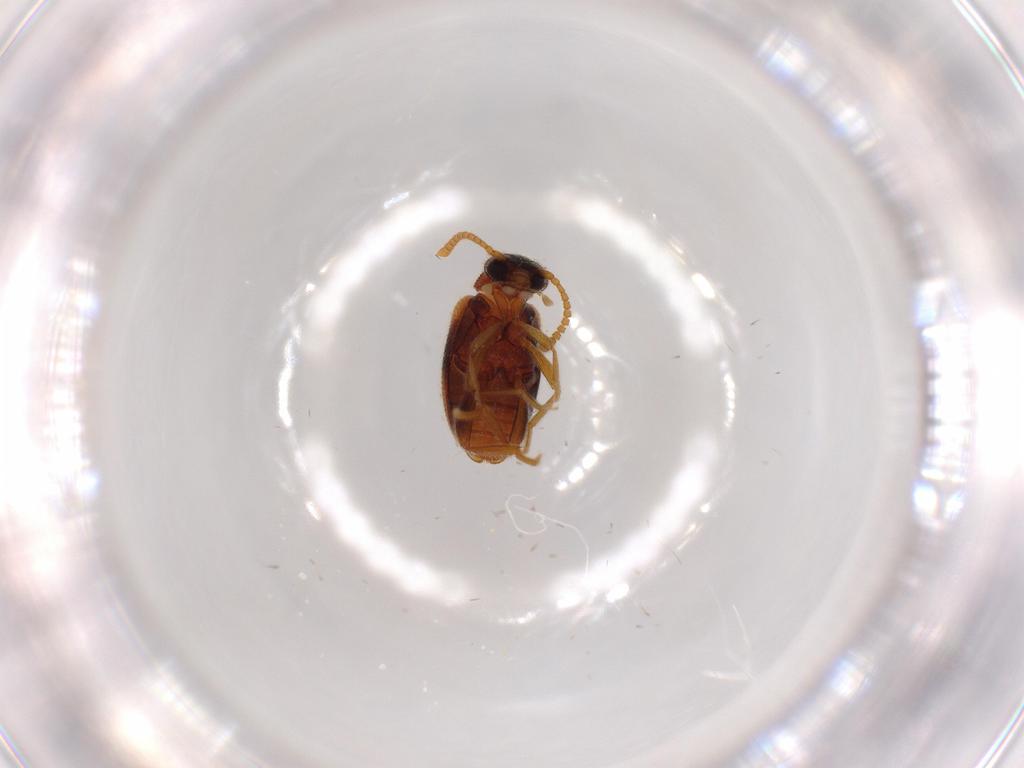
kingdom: Animalia
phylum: Arthropoda
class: Insecta
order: Coleoptera
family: Aderidae
